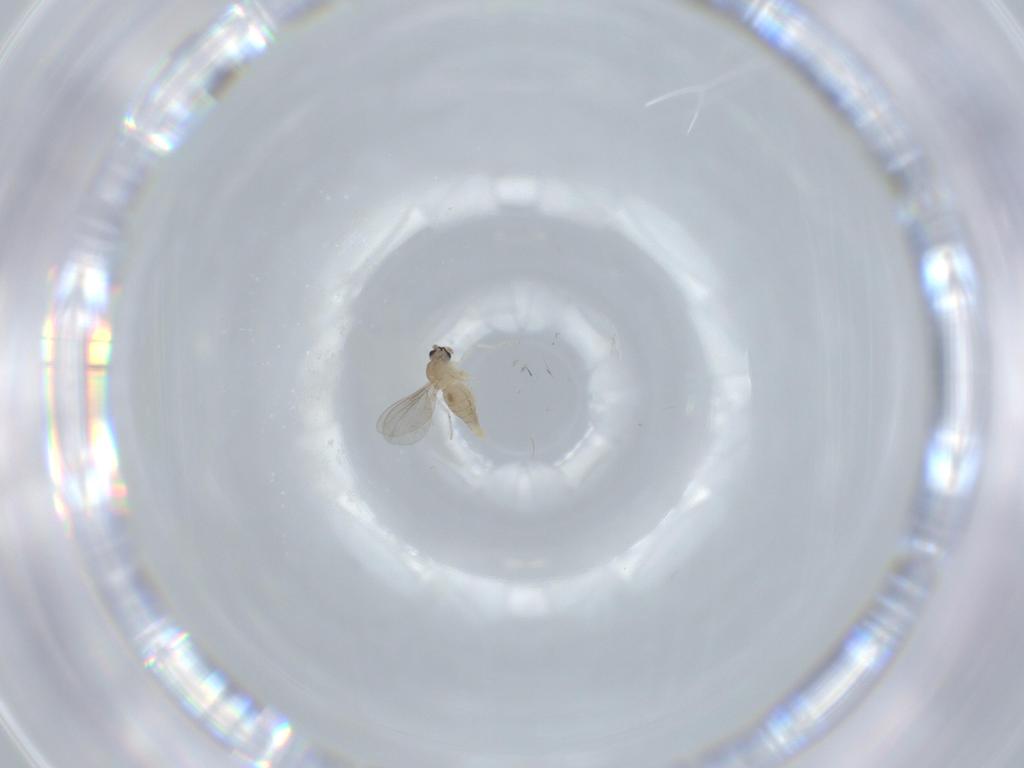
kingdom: Animalia
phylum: Arthropoda
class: Insecta
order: Diptera
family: Cecidomyiidae
